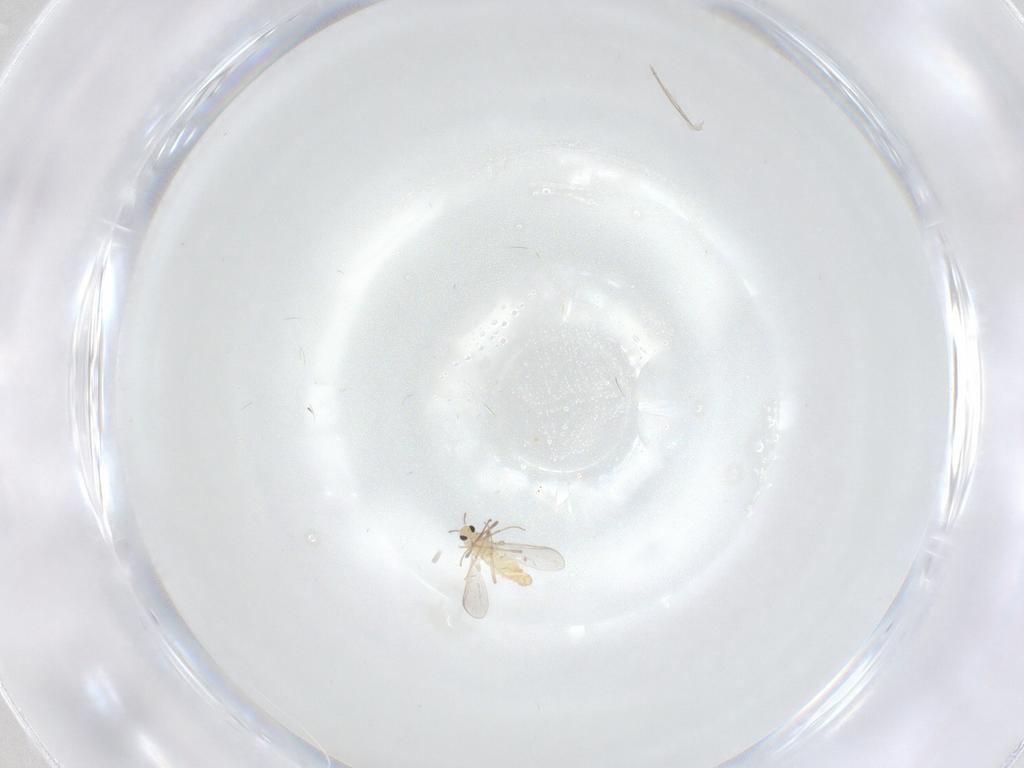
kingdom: Animalia
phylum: Arthropoda
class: Insecta
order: Diptera
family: Chironomidae
